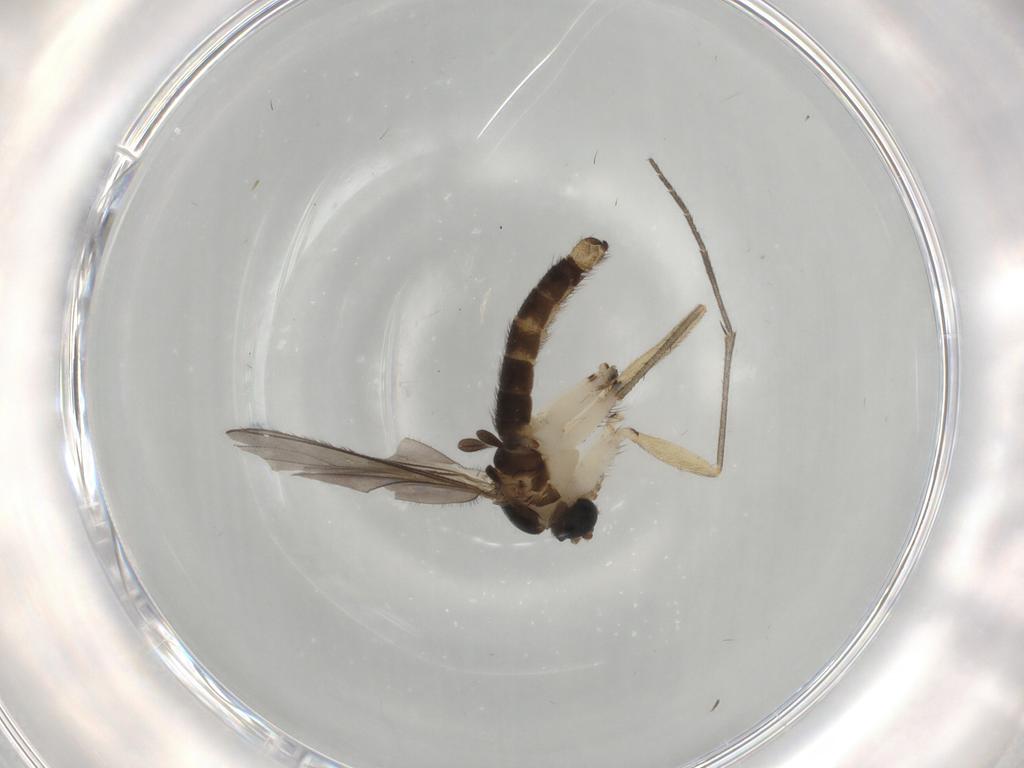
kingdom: Animalia
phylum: Arthropoda
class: Insecta
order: Diptera
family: Sciaridae
